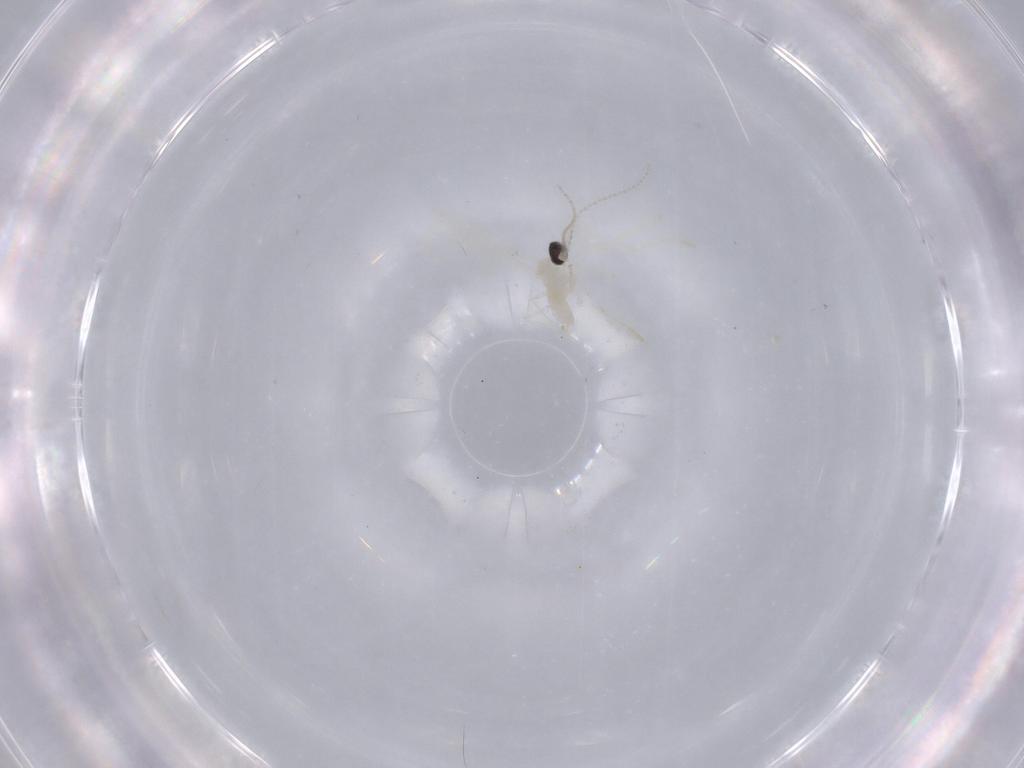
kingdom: Animalia
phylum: Arthropoda
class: Insecta
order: Diptera
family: Cecidomyiidae
